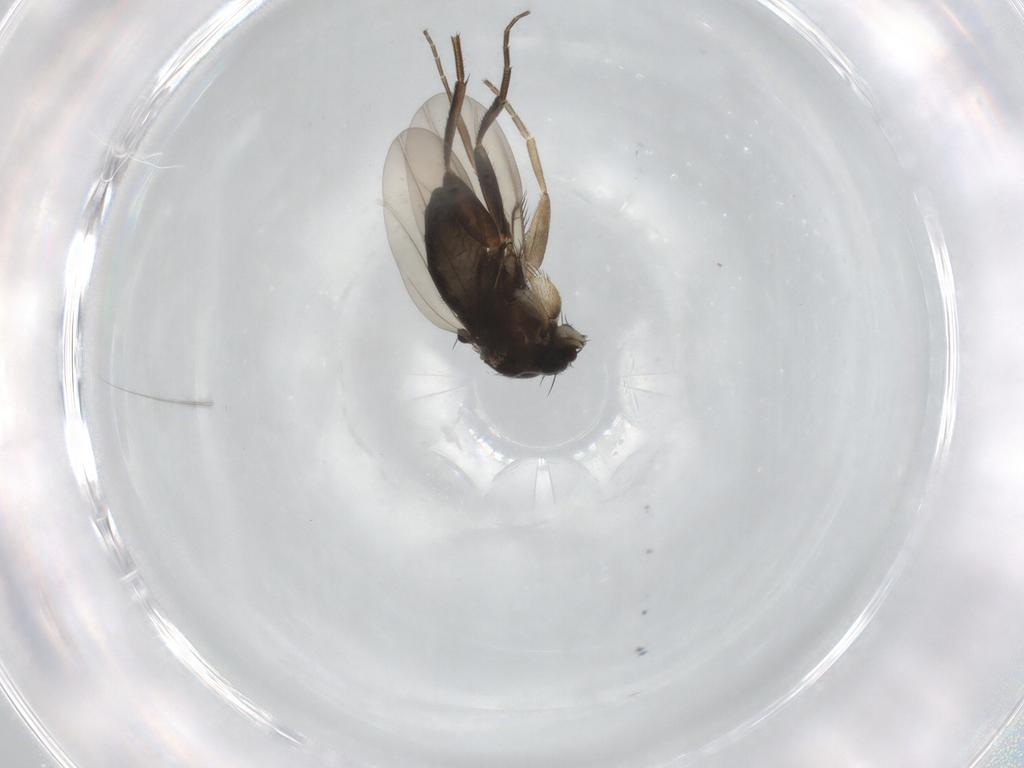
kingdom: Animalia
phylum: Arthropoda
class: Insecta
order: Diptera
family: Phoridae
